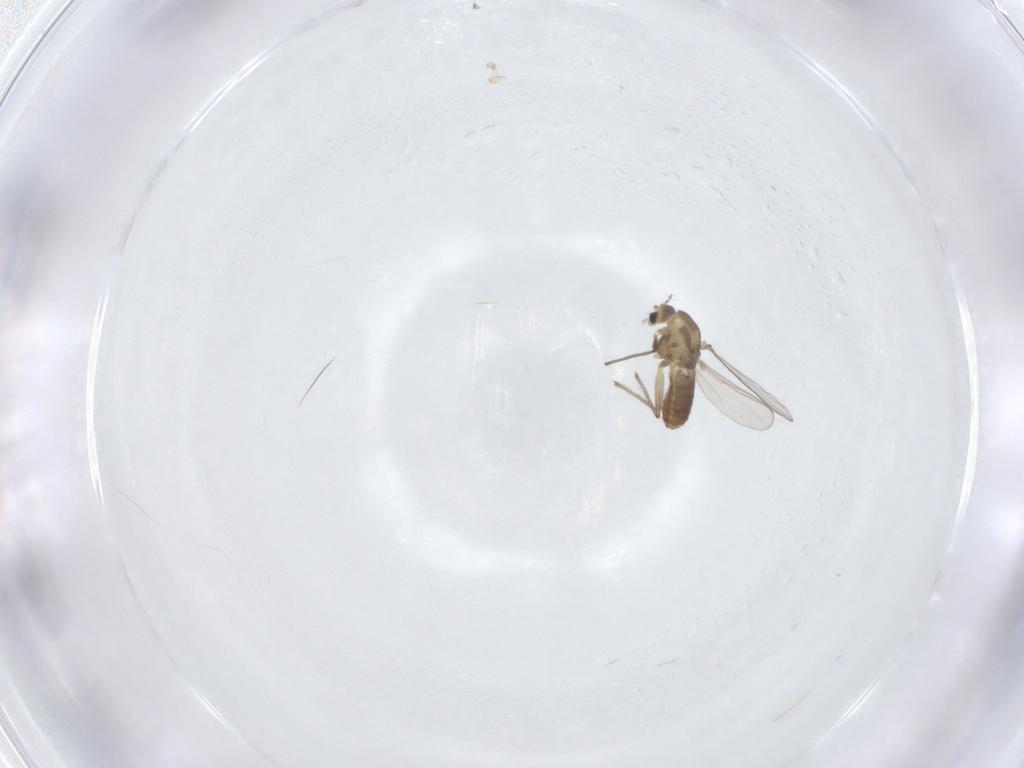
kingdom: Animalia
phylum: Arthropoda
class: Insecta
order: Diptera
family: Chironomidae
